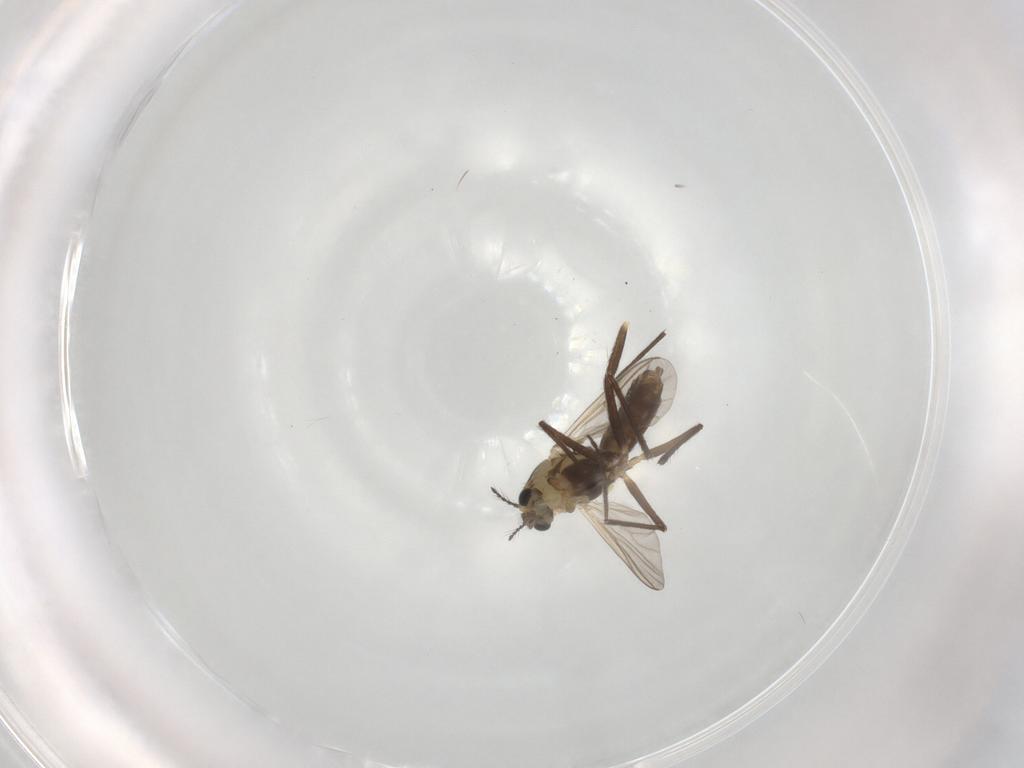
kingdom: Animalia
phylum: Arthropoda
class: Insecta
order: Diptera
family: Chironomidae
